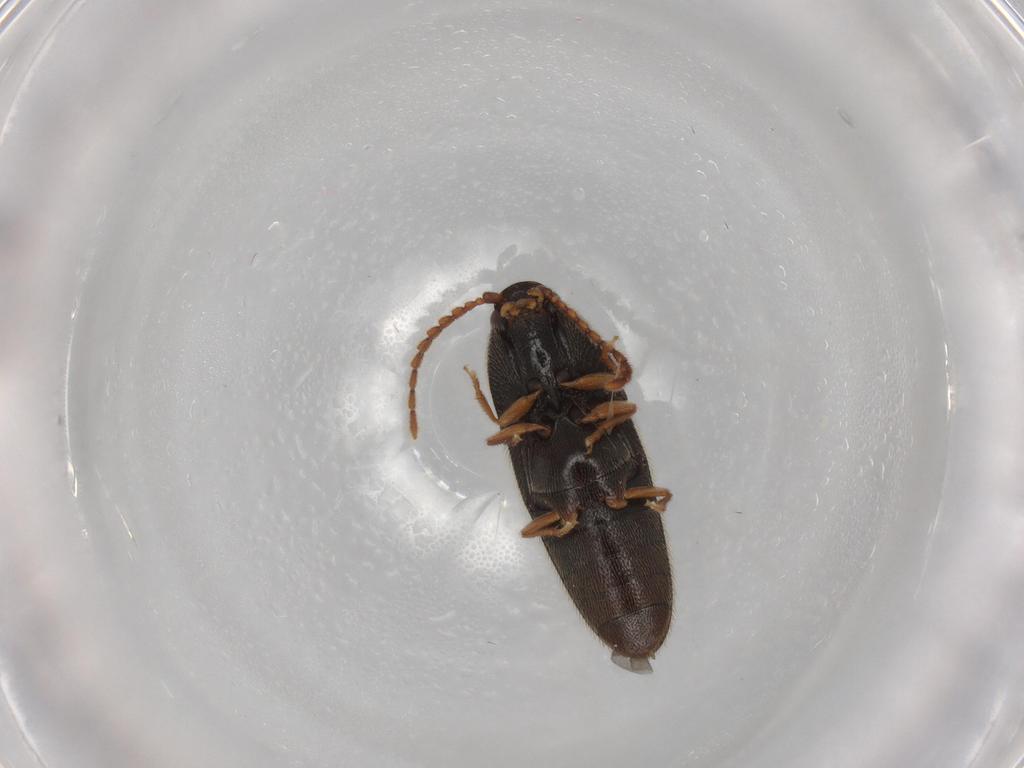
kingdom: Animalia
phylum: Arthropoda
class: Insecta
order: Coleoptera
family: Elateridae
